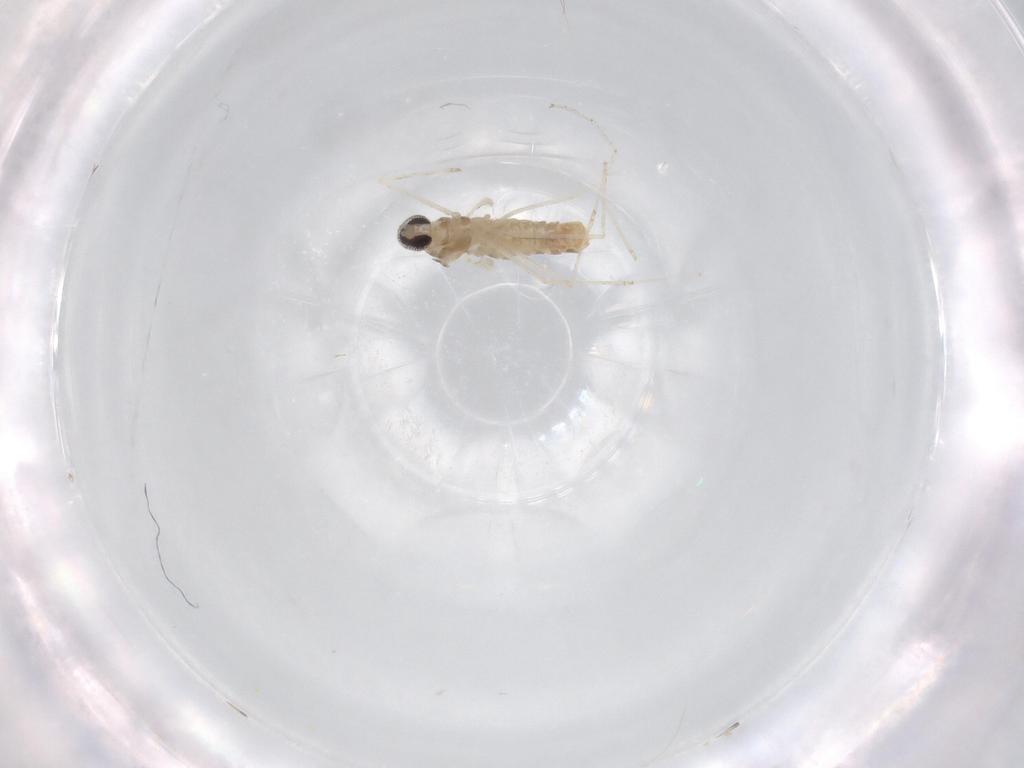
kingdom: Animalia
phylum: Arthropoda
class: Insecta
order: Diptera
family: Cecidomyiidae
